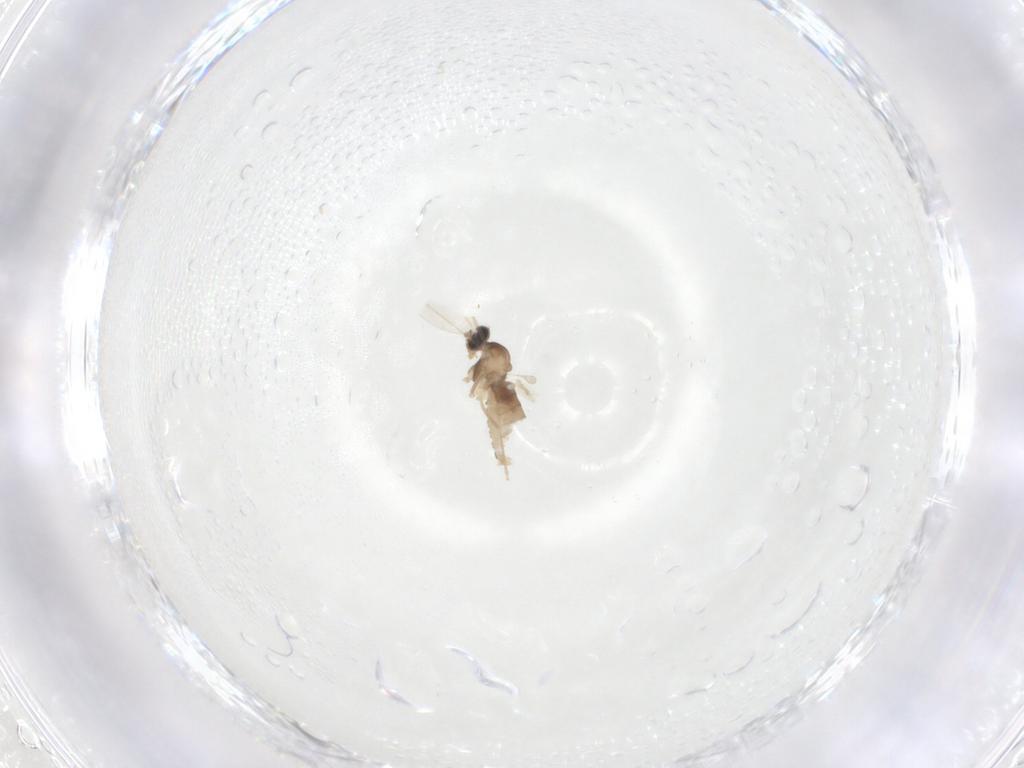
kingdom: Animalia
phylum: Arthropoda
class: Insecta
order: Diptera
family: Cecidomyiidae
